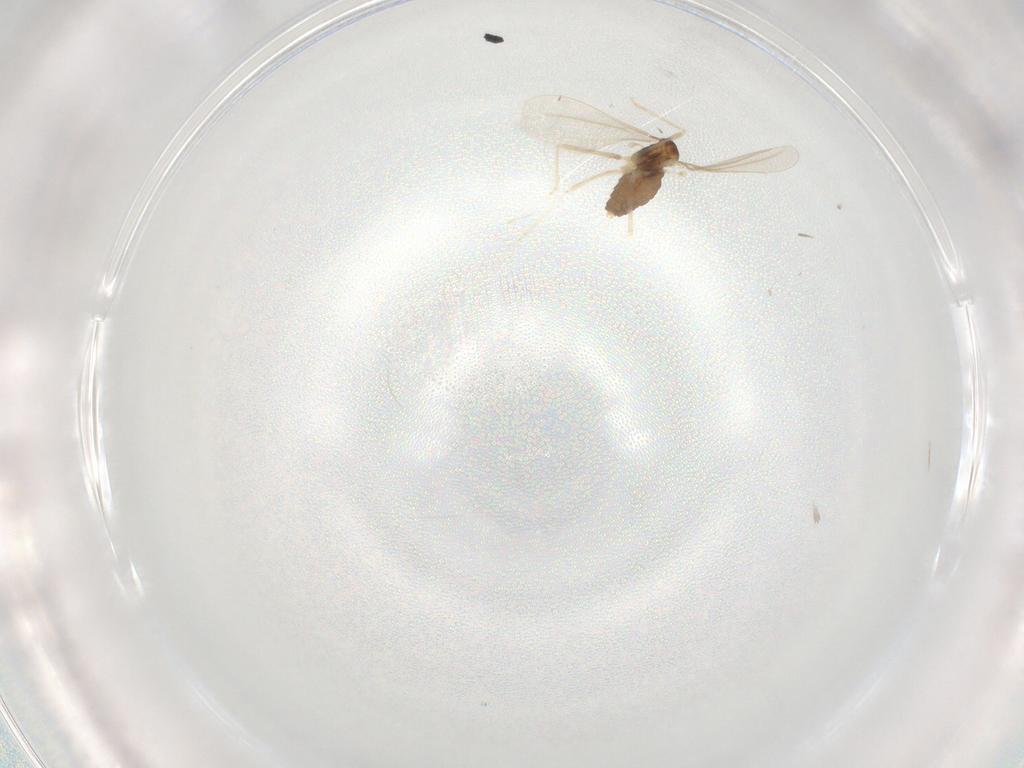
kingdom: Animalia
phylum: Arthropoda
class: Insecta
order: Diptera
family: Cecidomyiidae
